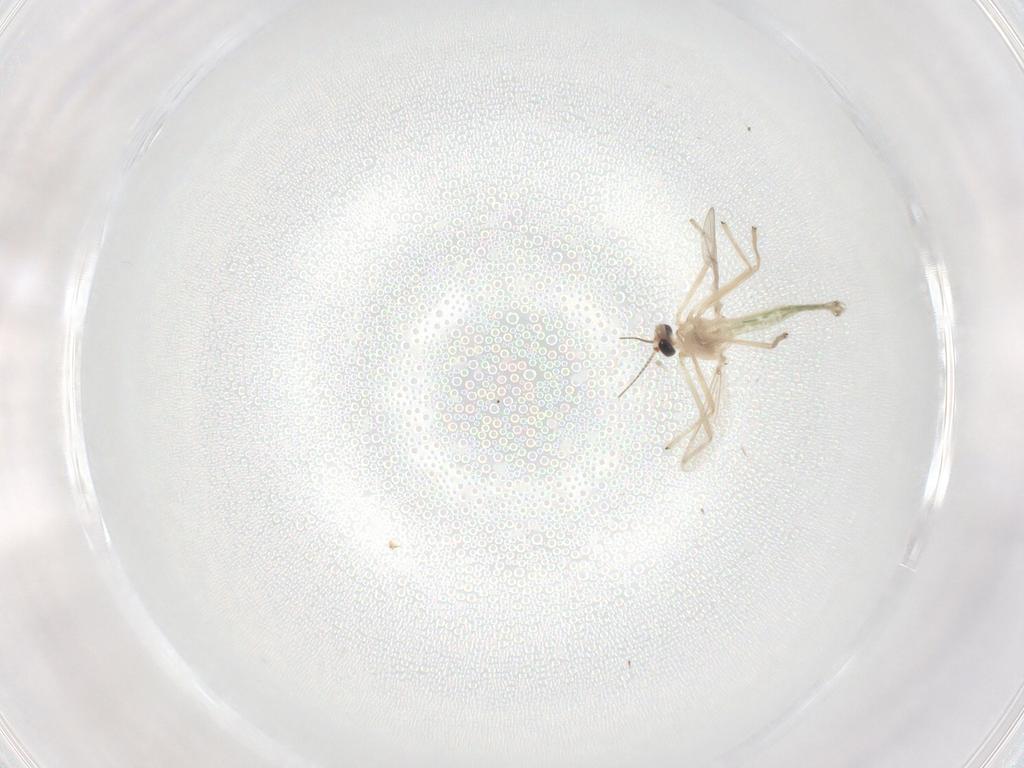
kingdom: Animalia
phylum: Arthropoda
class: Insecta
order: Diptera
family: Chironomidae
